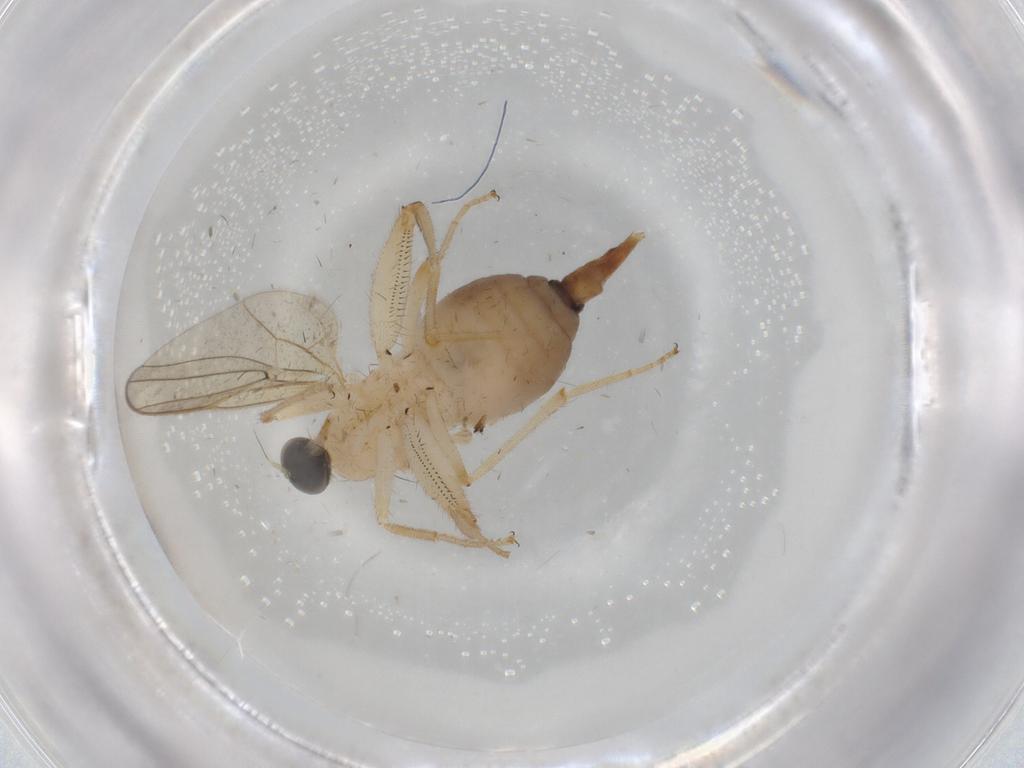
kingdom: Animalia
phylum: Arthropoda
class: Insecta
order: Diptera
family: Hybotidae
